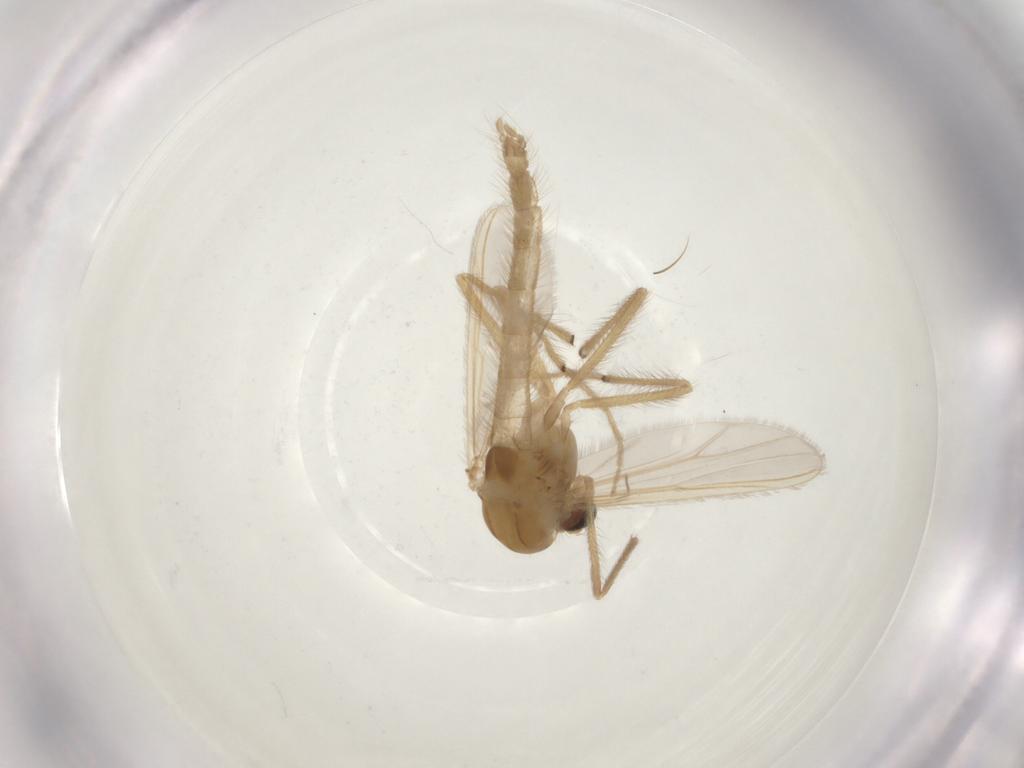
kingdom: Animalia
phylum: Arthropoda
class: Insecta
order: Diptera
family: Chironomidae
